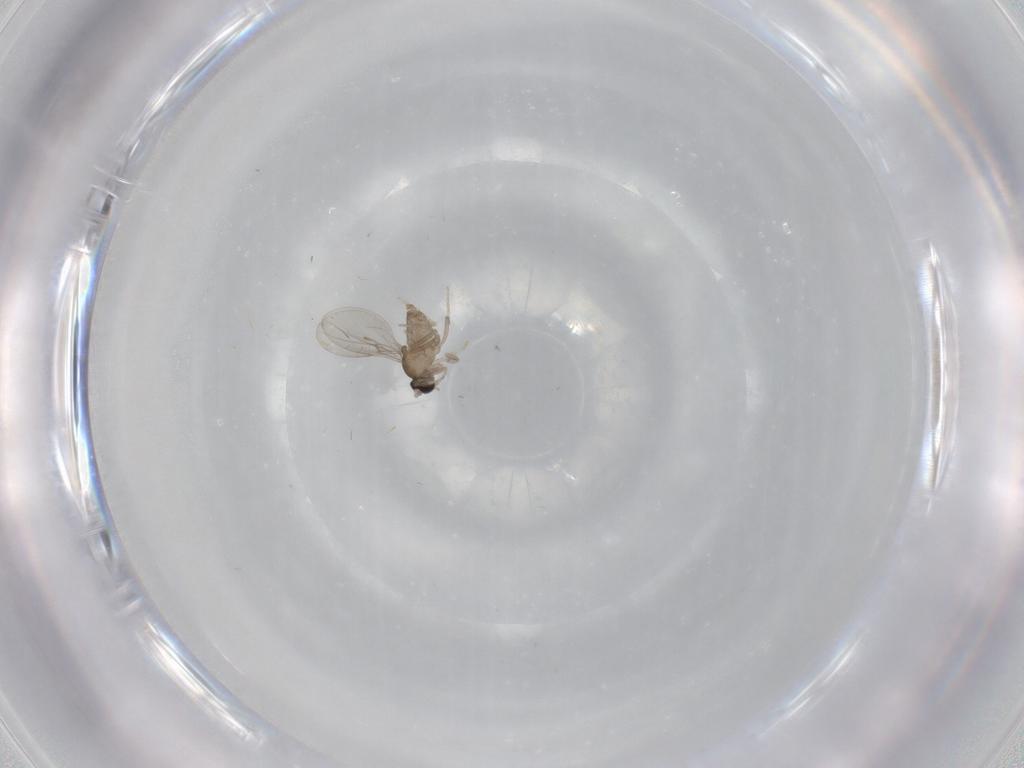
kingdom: Animalia
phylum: Arthropoda
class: Insecta
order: Diptera
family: Cecidomyiidae
